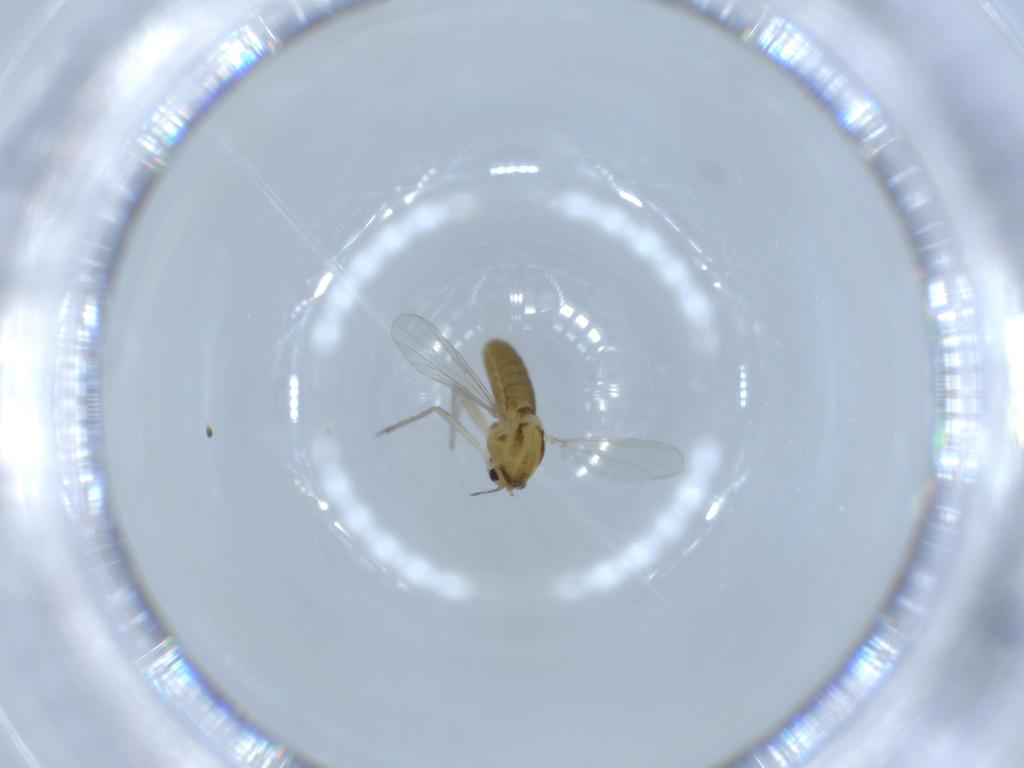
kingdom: Animalia
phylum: Arthropoda
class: Insecta
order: Diptera
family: Chironomidae
